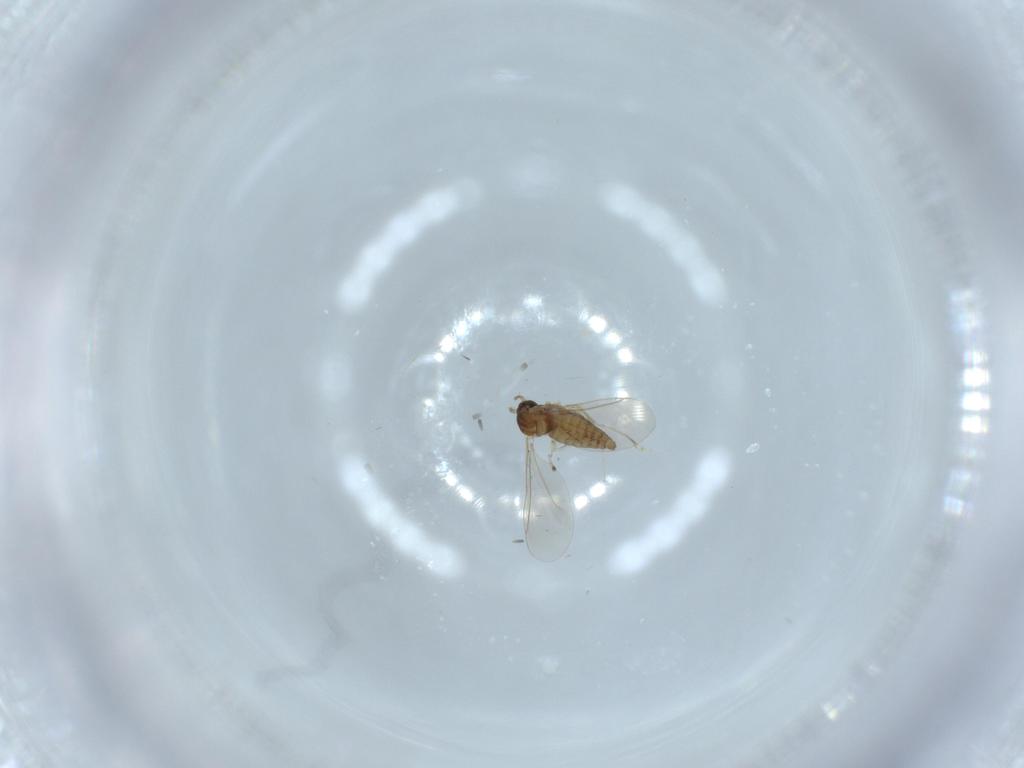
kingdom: Animalia
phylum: Arthropoda
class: Insecta
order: Diptera
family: Cecidomyiidae
